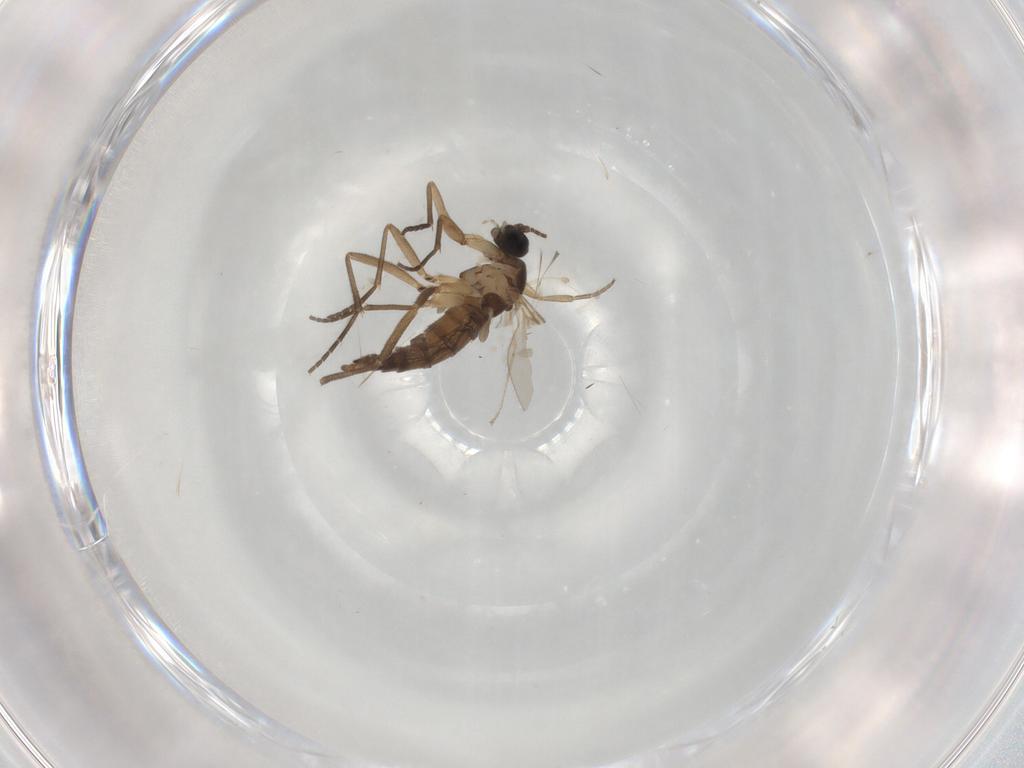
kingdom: Animalia
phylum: Arthropoda
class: Insecta
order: Diptera
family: Sciaridae
